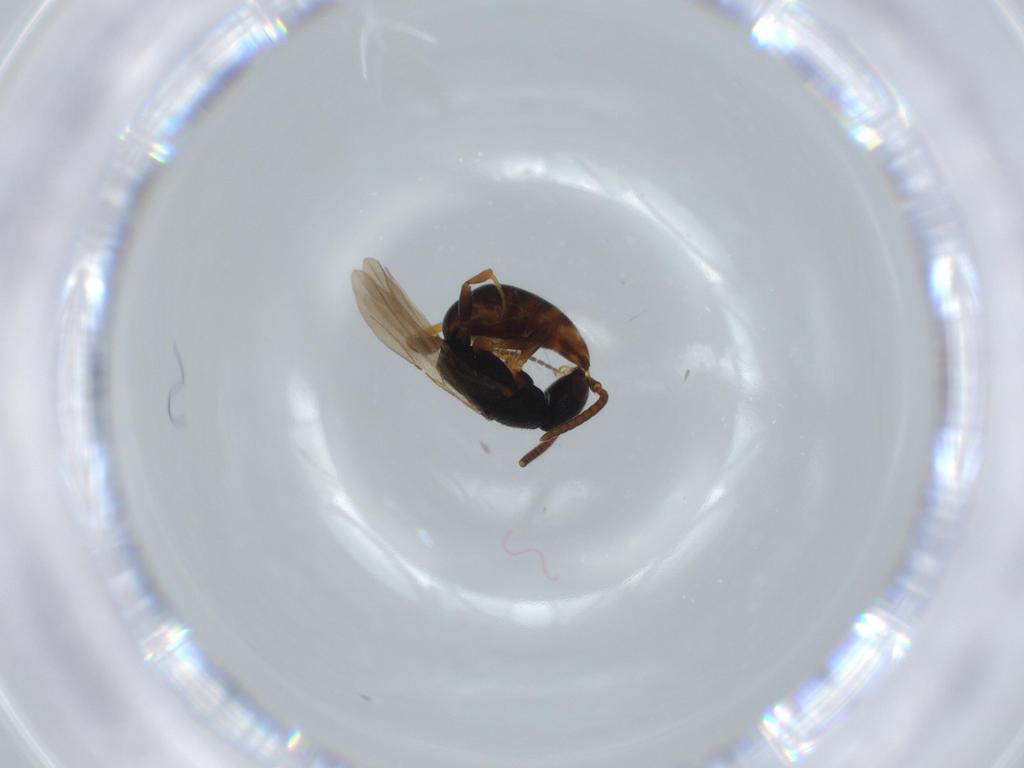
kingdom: Animalia
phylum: Arthropoda
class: Insecta
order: Hymenoptera
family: Bethylidae
